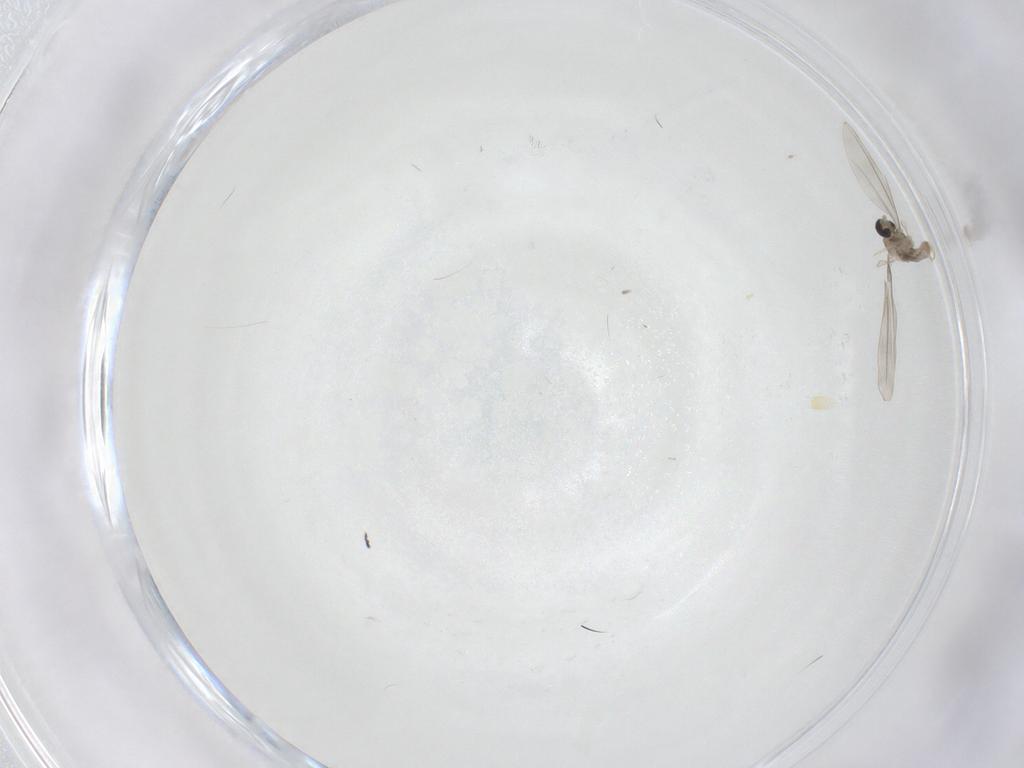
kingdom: Animalia
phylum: Arthropoda
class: Insecta
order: Diptera
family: Cecidomyiidae
